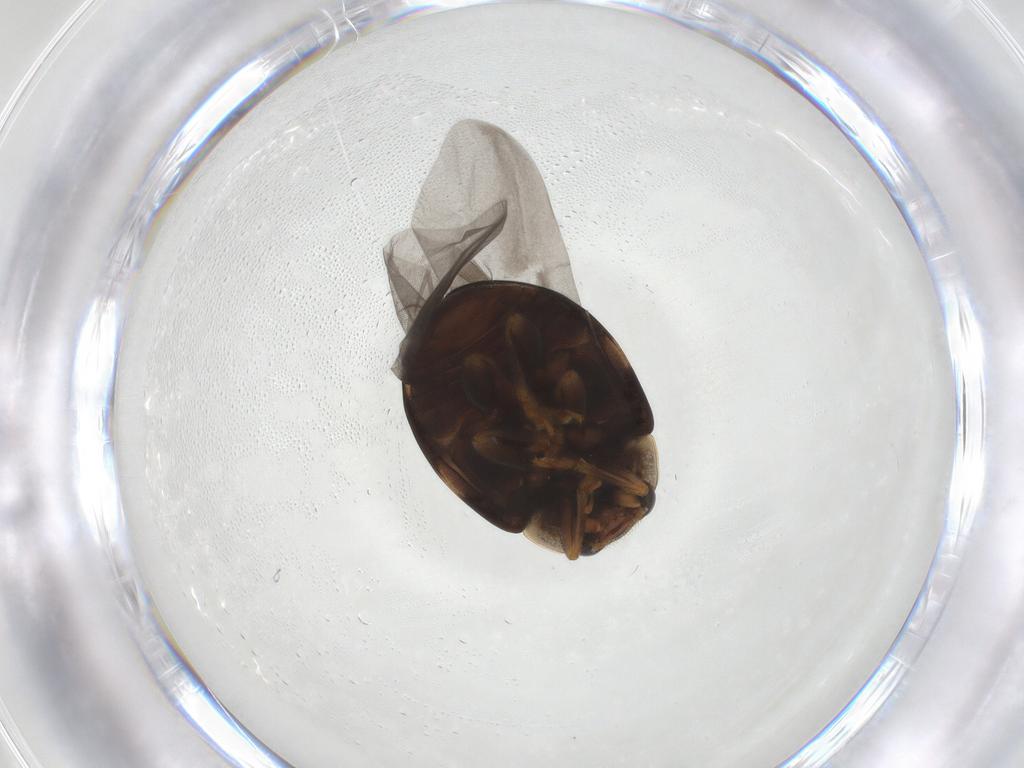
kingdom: Animalia
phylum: Arthropoda
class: Insecta
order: Coleoptera
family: Coccinellidae
